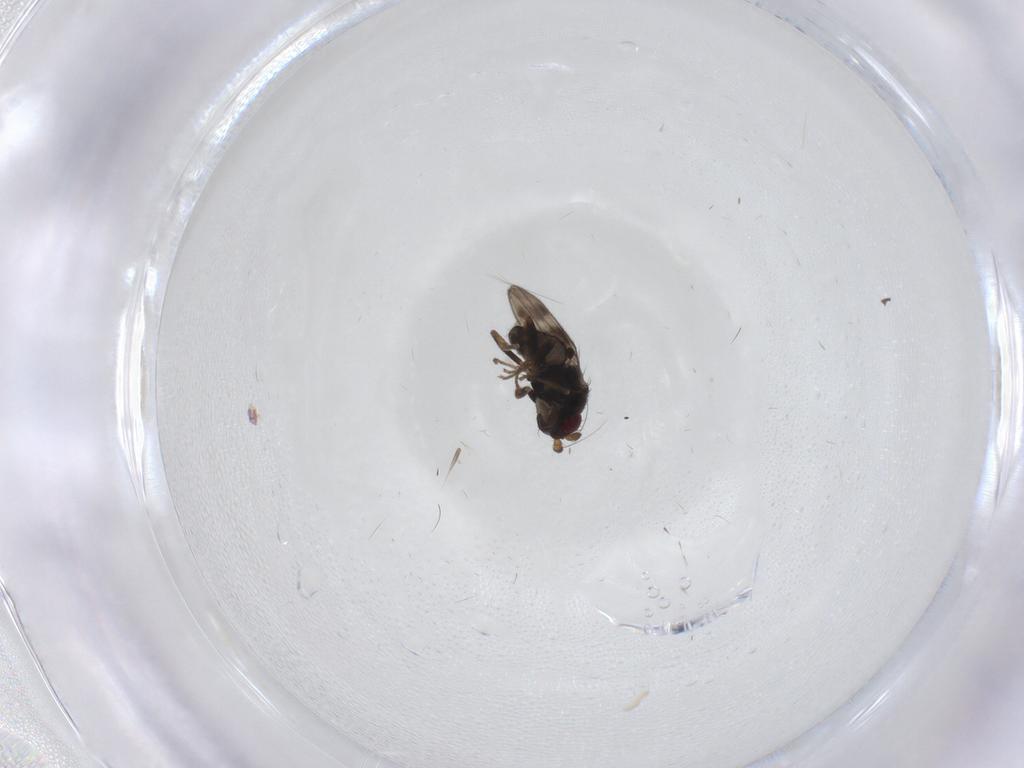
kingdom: Animalia
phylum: Arthropoda
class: Insecta
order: Diptera
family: Sphaeroceridae
